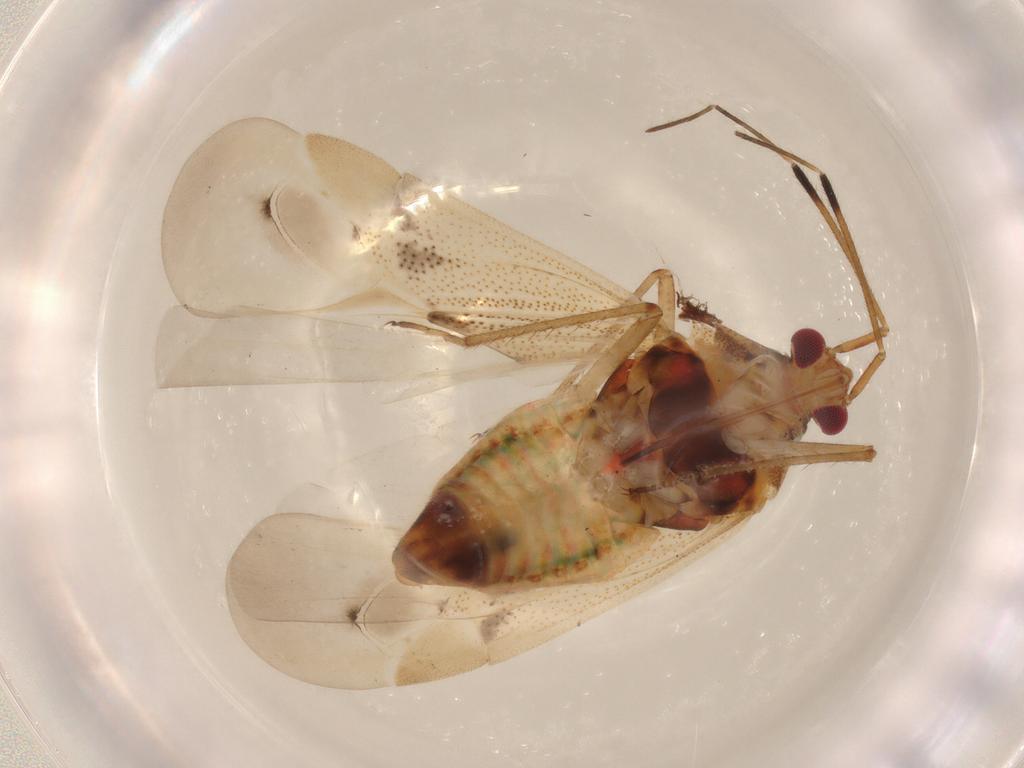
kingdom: Animalia
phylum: Arthropoda
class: Insecta
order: Hemiptera
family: Miridae
